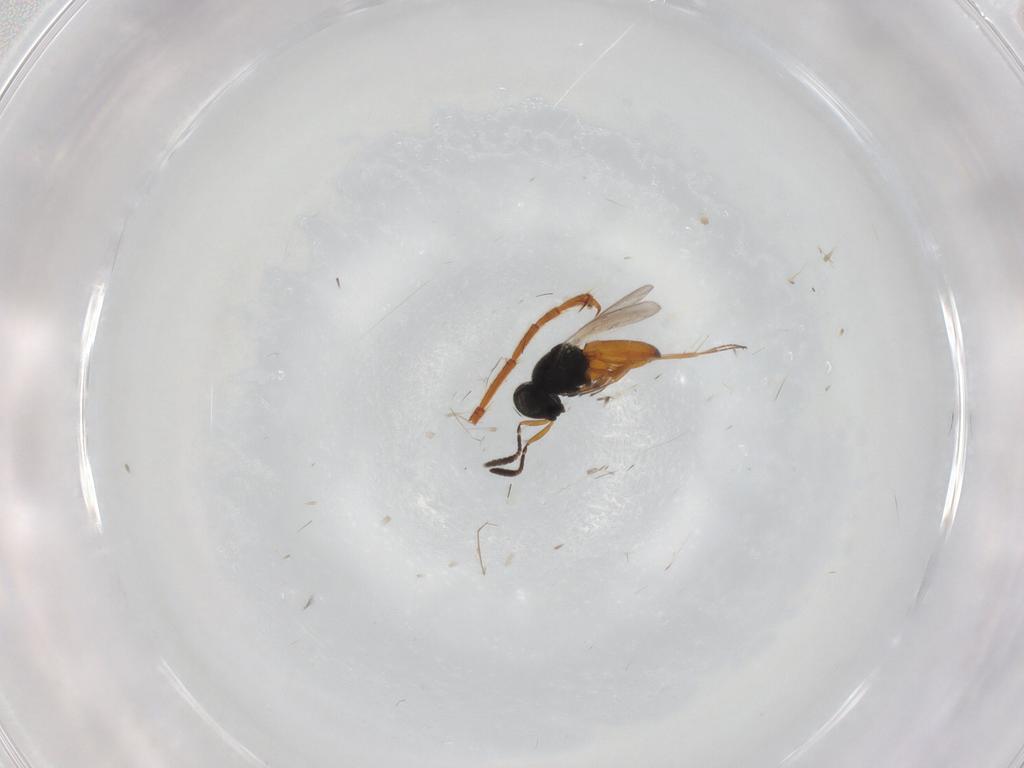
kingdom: Animalia
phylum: Arthropoda
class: Insecta
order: Hymenoptera
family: Formicidae
